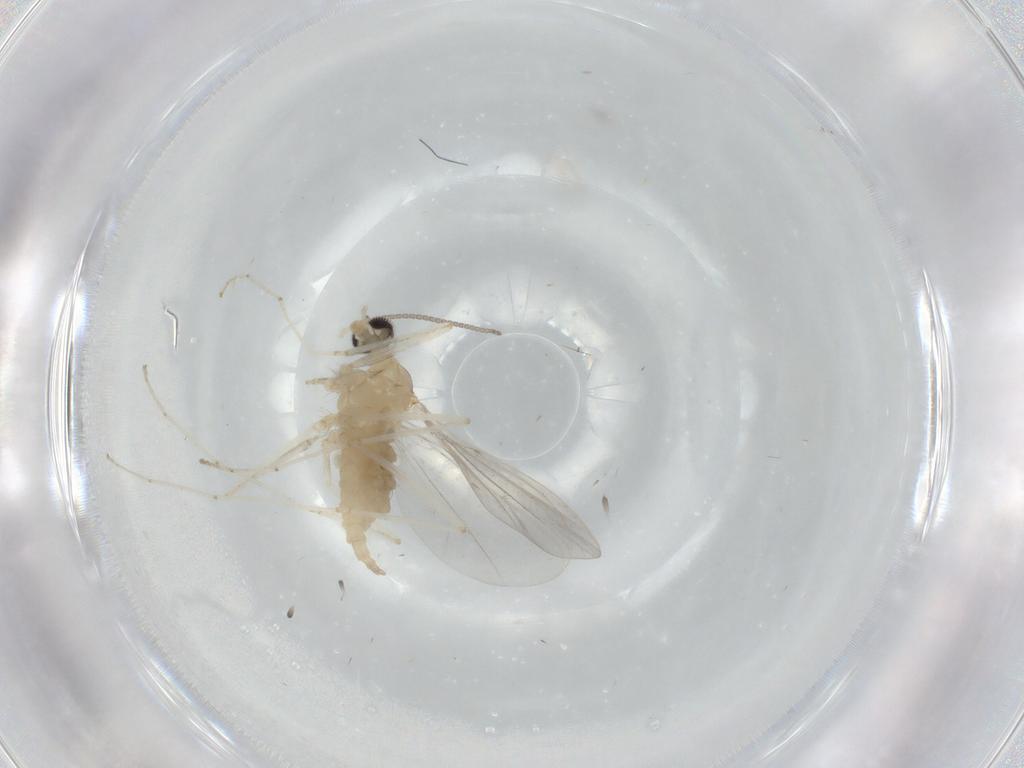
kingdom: Animalia
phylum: Arthropoda
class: Insecta
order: Diptera
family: Cecidomyiidae
